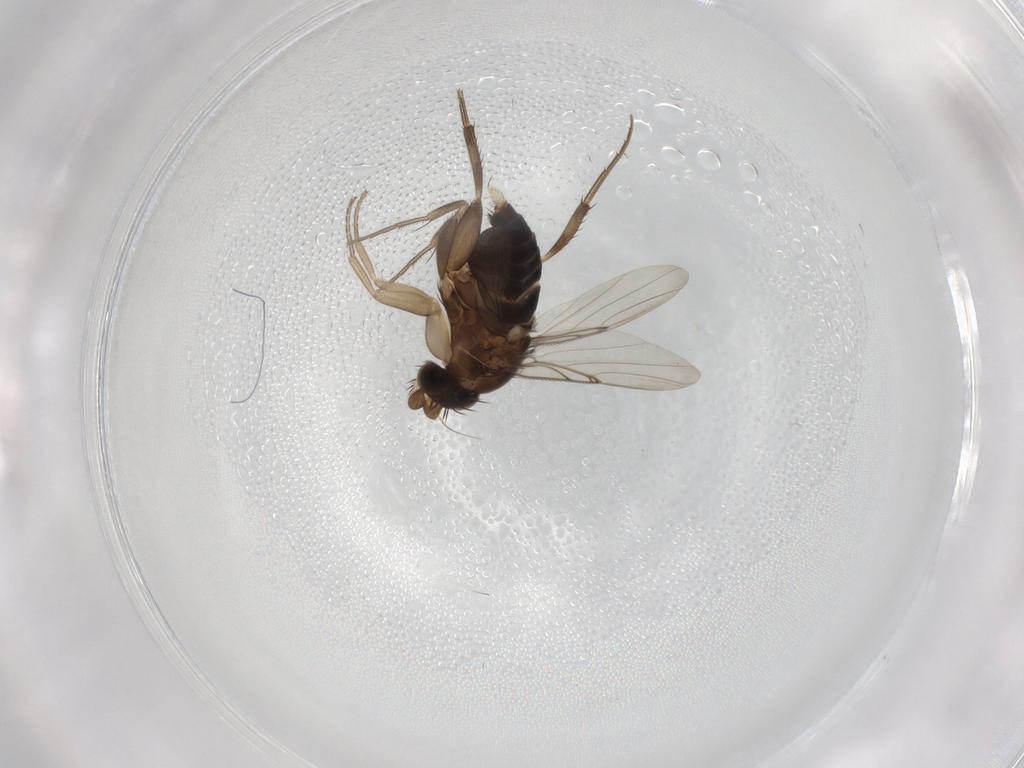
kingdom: Animalia
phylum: Arthropoda
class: Insecta
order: Diptera
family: Phoridae
